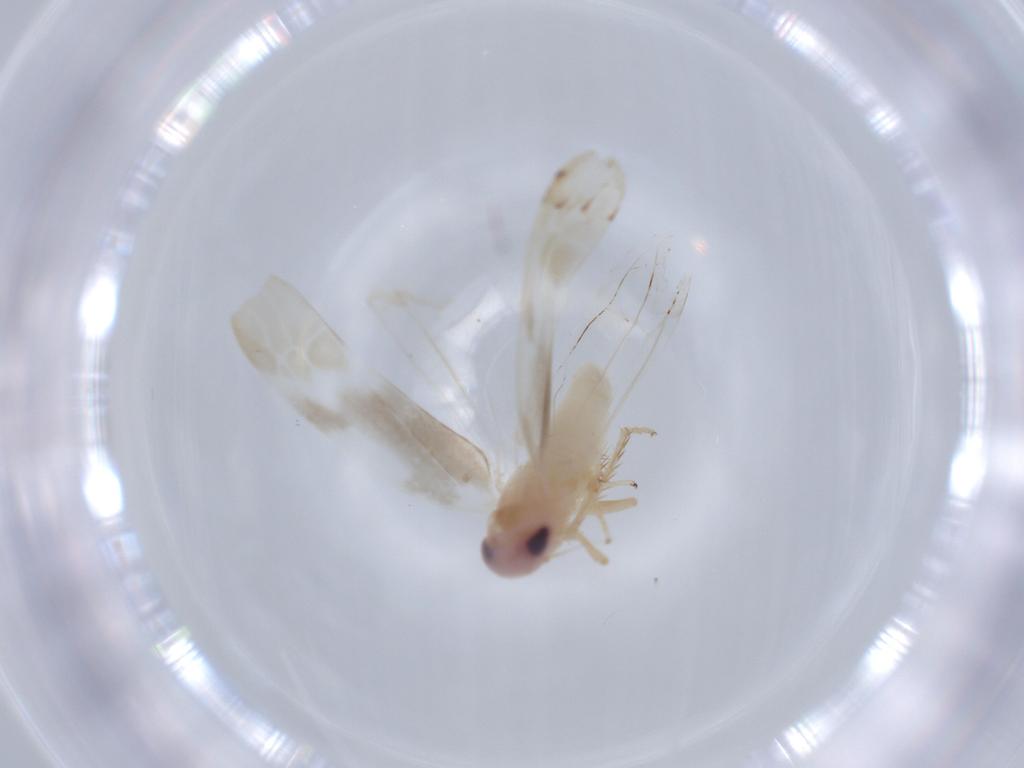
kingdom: Animalia
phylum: Arthropoda
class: Insecta
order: Hemiptera
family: Cicadellidae
